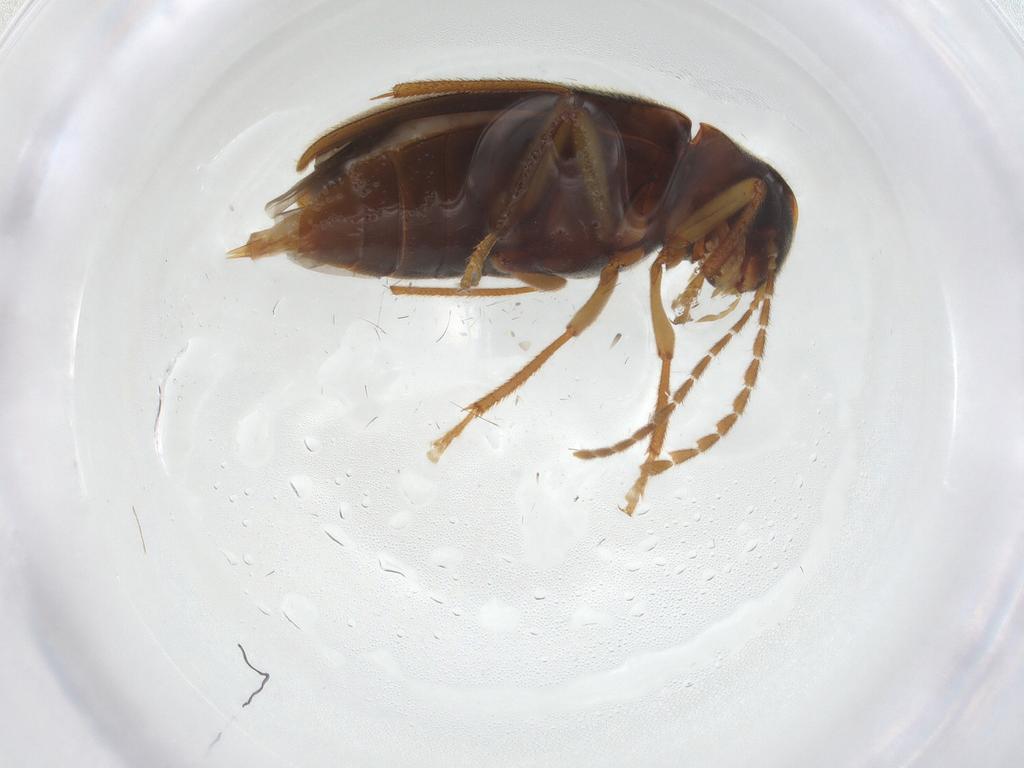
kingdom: Animalia
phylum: Arthropoda
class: Insecta
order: Coleoptera
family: Ptilodactylidae
